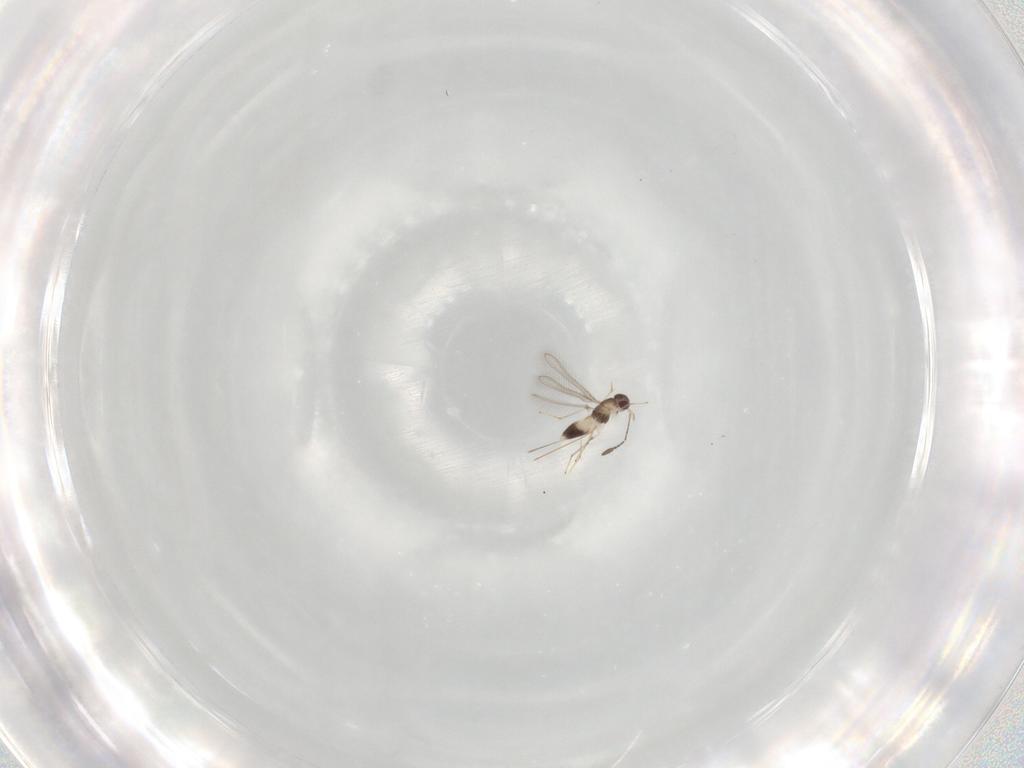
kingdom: Animalia
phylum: Arthropoda
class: Insecta
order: Hymenoptera
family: Mymaridae
